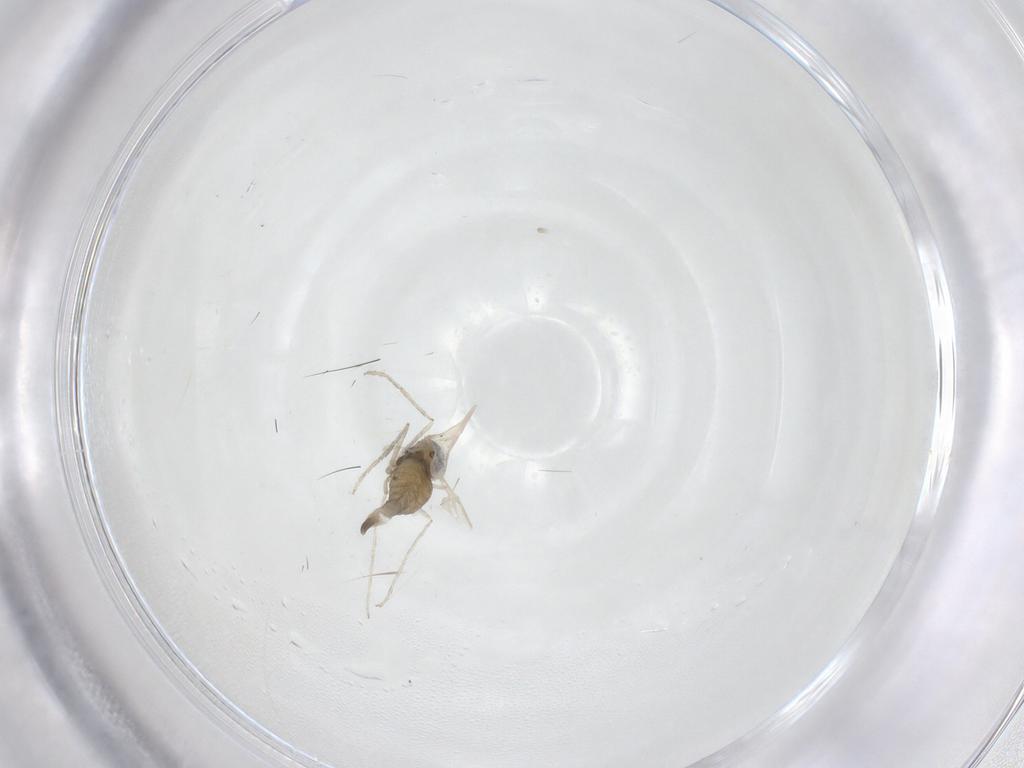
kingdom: Animalia
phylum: Arthropoda
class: Insecta
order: Diptera
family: Cecidomyiidae
